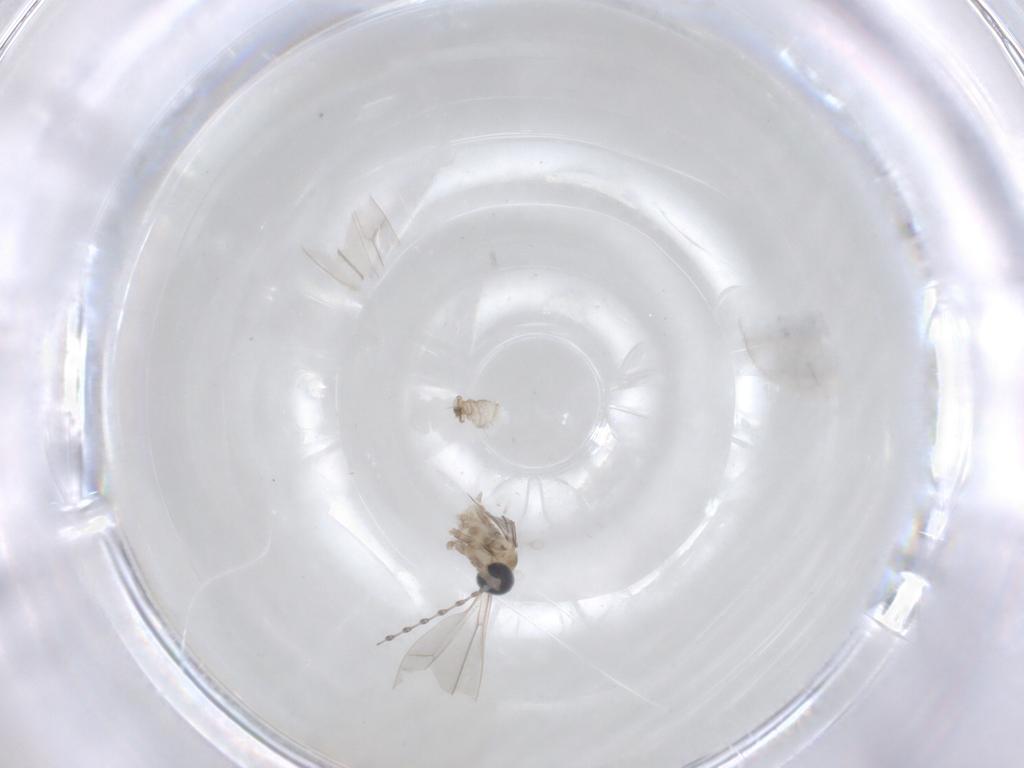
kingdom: Animalia
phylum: Arthropoda
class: Insecta
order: Diptera
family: Cecidomyiidae
